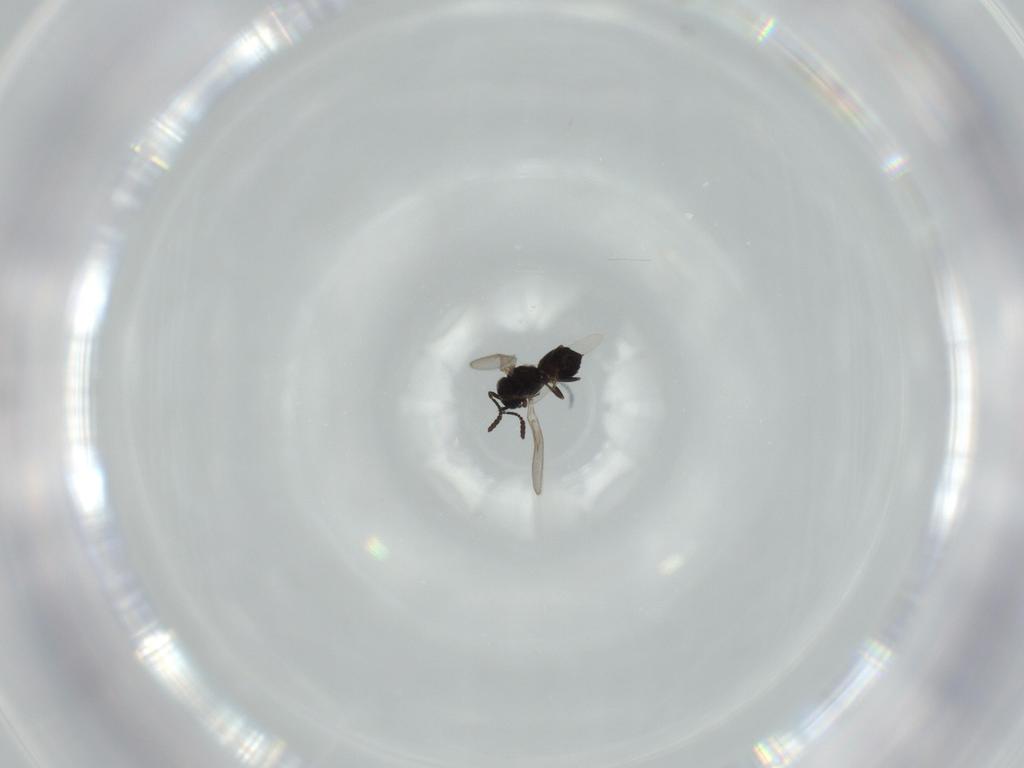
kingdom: Animalia
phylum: Arthropoda
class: Insecta
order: Hymenoptera
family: Scelionidae
